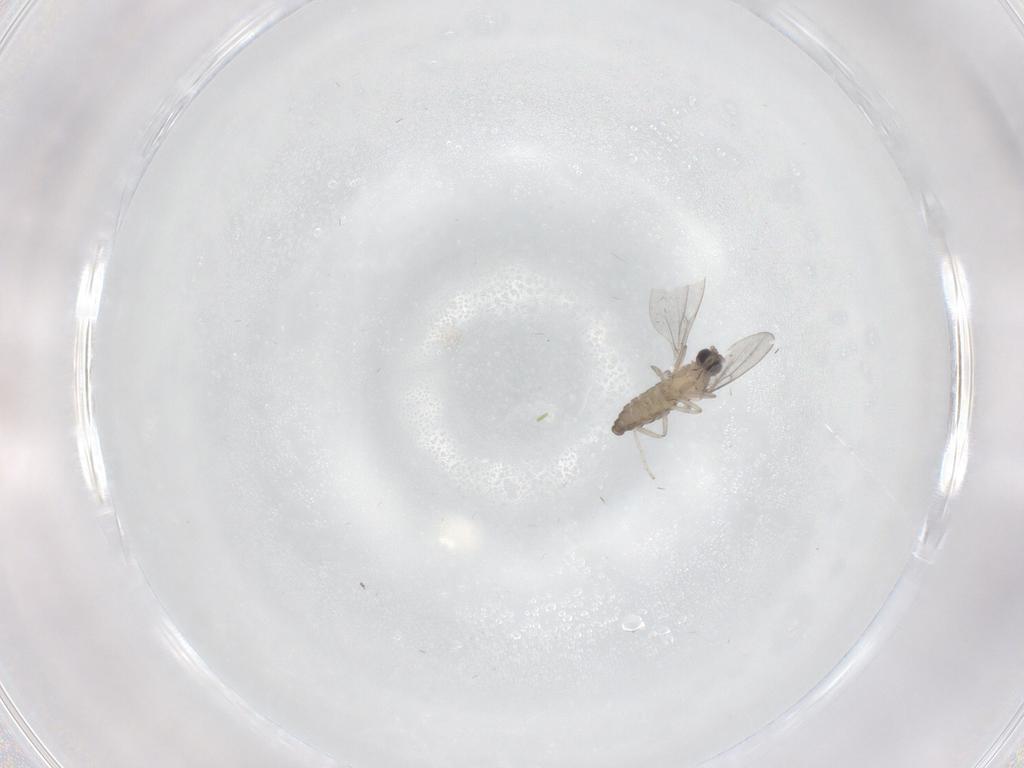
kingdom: Animalia
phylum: Arthropoda
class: Insecta
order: Diptera
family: Cecidomyiidae
